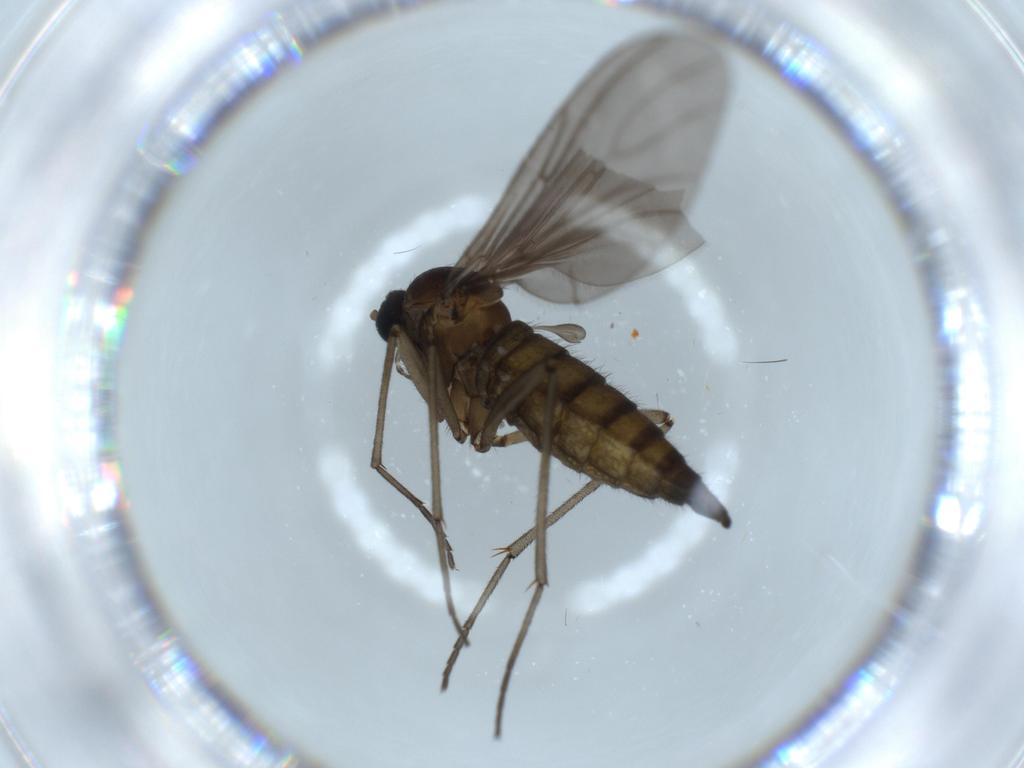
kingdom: Animalia
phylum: Arthropoda
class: Insecta
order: Diptera
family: Sciaridae
